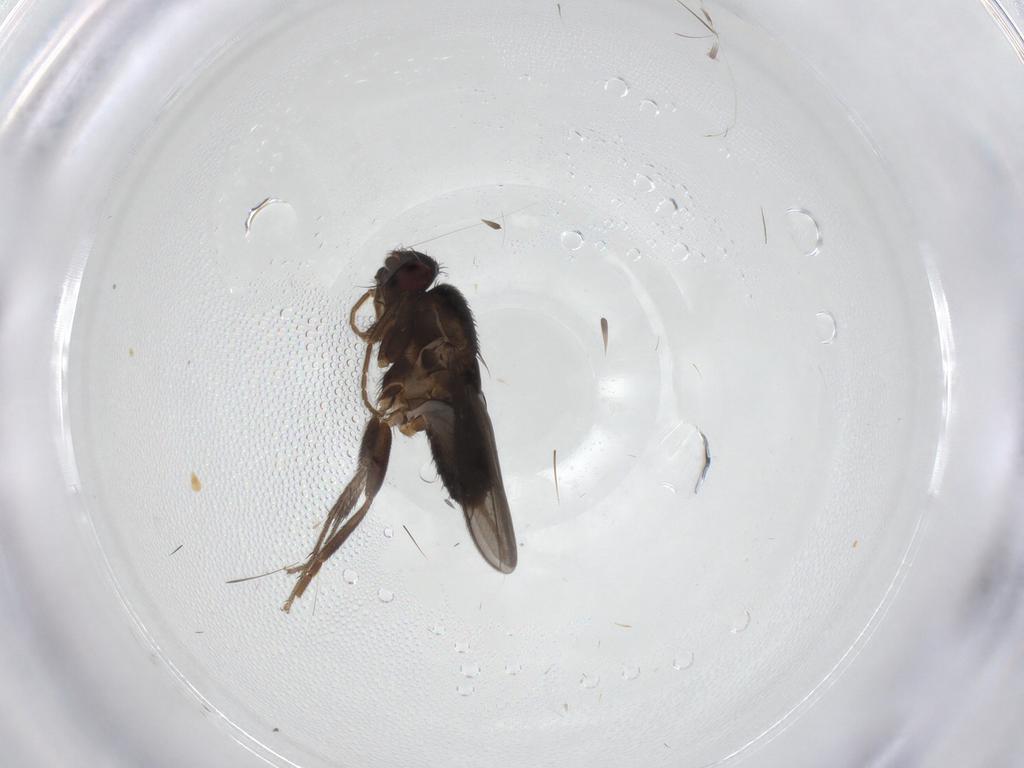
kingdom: Animalia
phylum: Arthropoda
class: Insecta
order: Diptera
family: Sphaeroceridae
